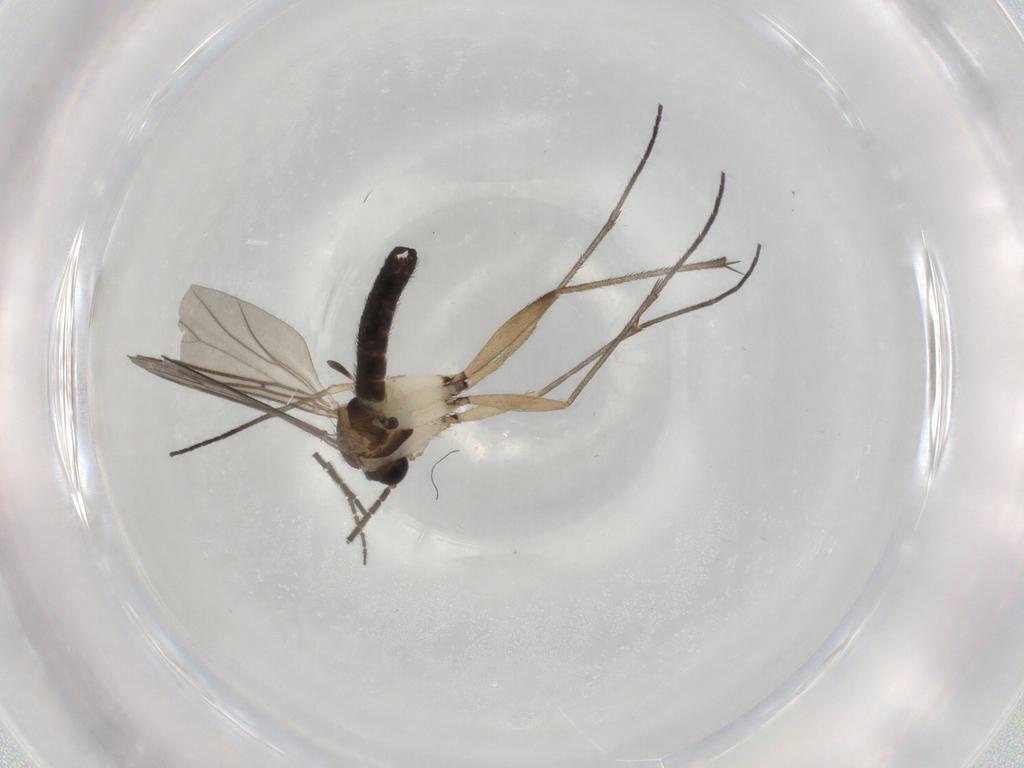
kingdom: Animalia
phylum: Arthropoda
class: Insecta
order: Diptera
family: Sciaridae
